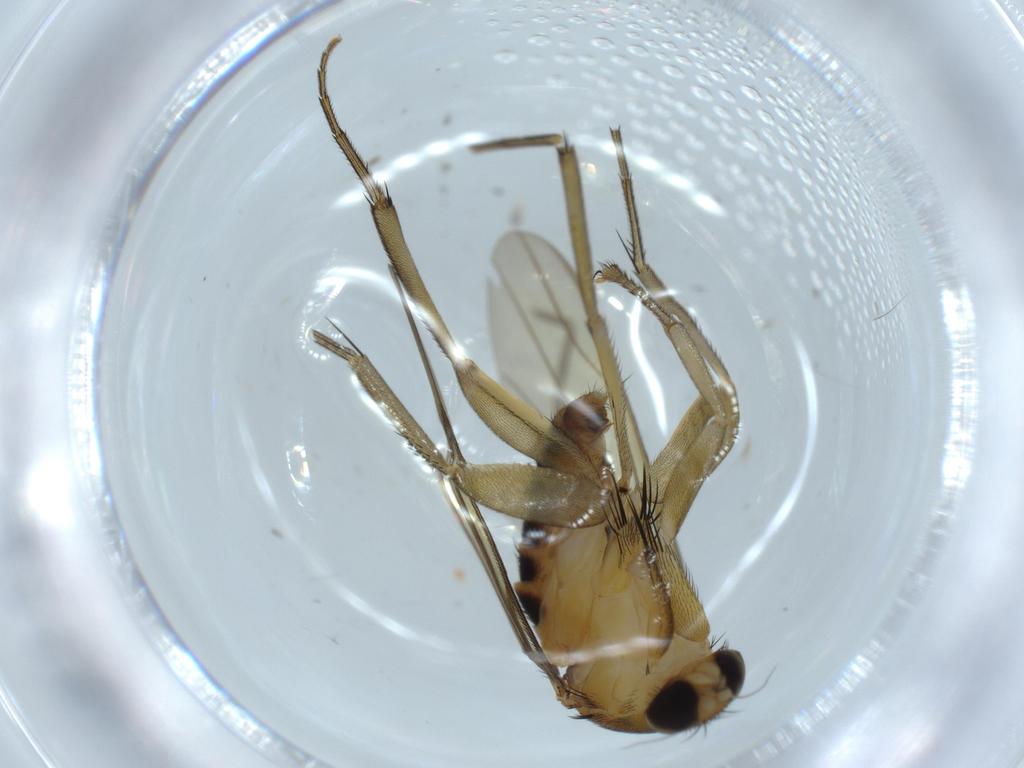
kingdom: Animalia
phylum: Arthropoda
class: Insecta
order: Diptera
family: Phoridae
